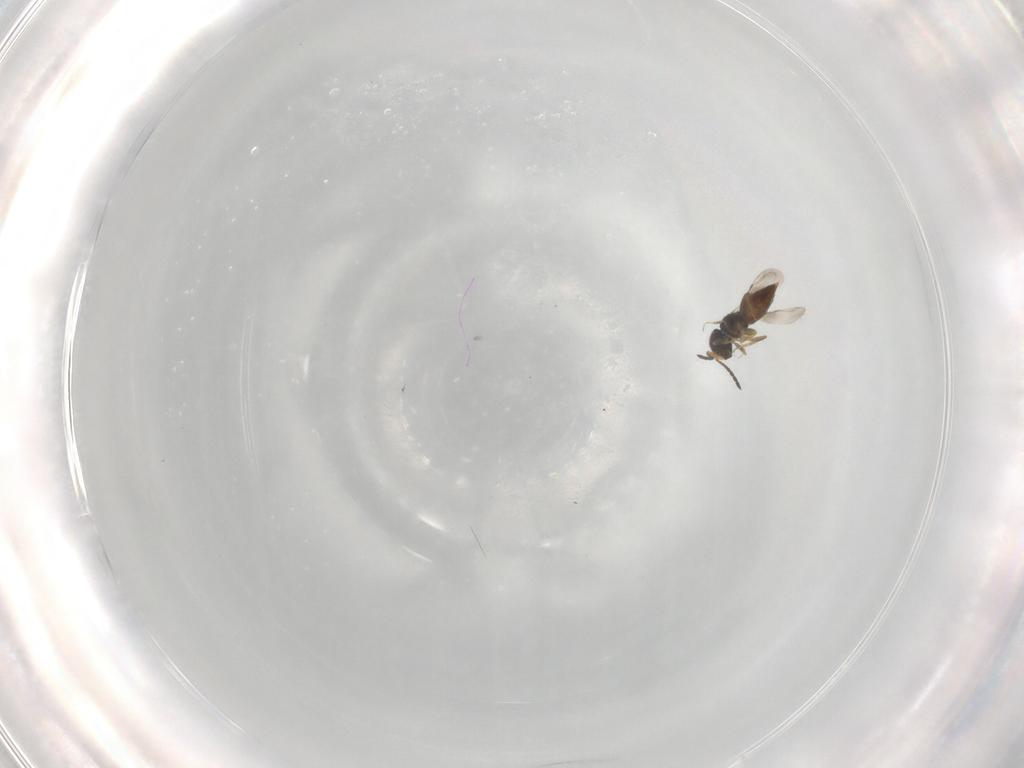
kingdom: Animalia
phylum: Arthropoda
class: Insecta
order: Hymenoptera
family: Ceraphronidae
